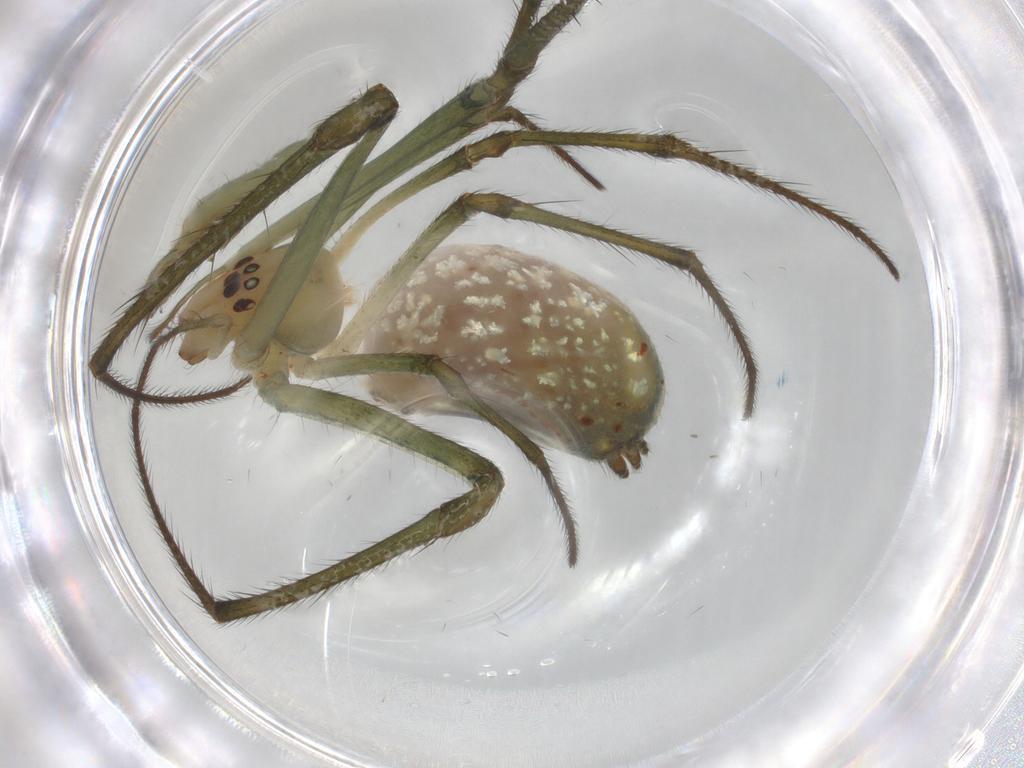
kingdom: Animalia
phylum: Arthropoda
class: Arachnida
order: Araneae
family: Tetragnathidae
